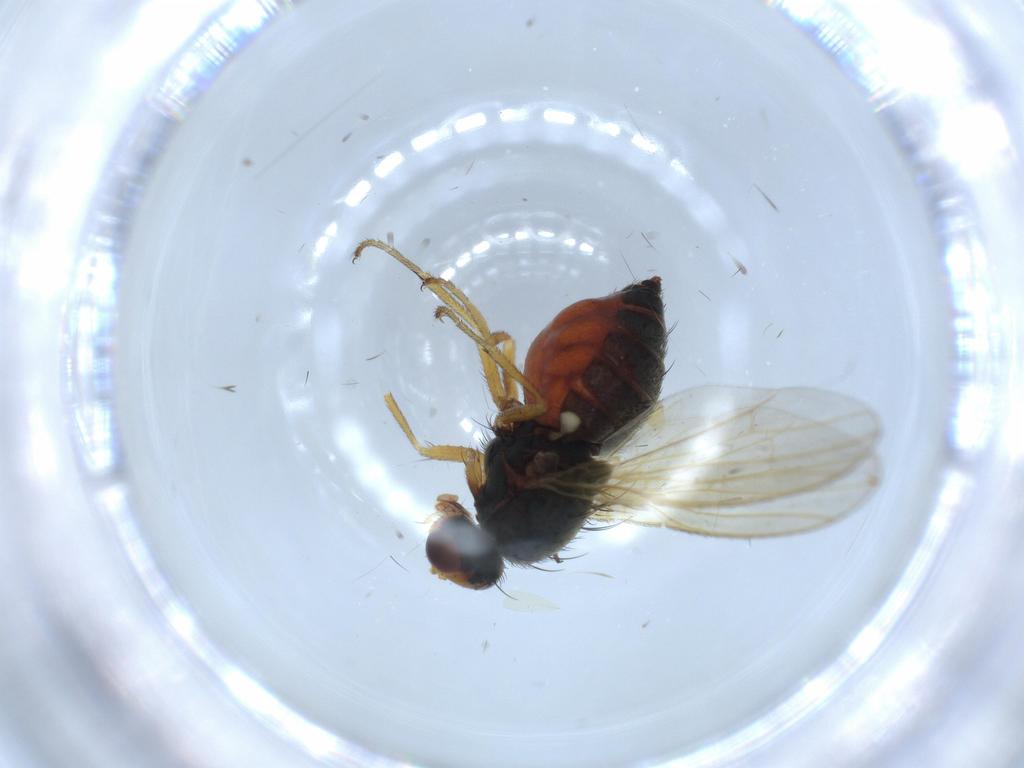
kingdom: Animalia
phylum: Arthropoda
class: Insecta
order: Diptera
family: Heleomyzidae
